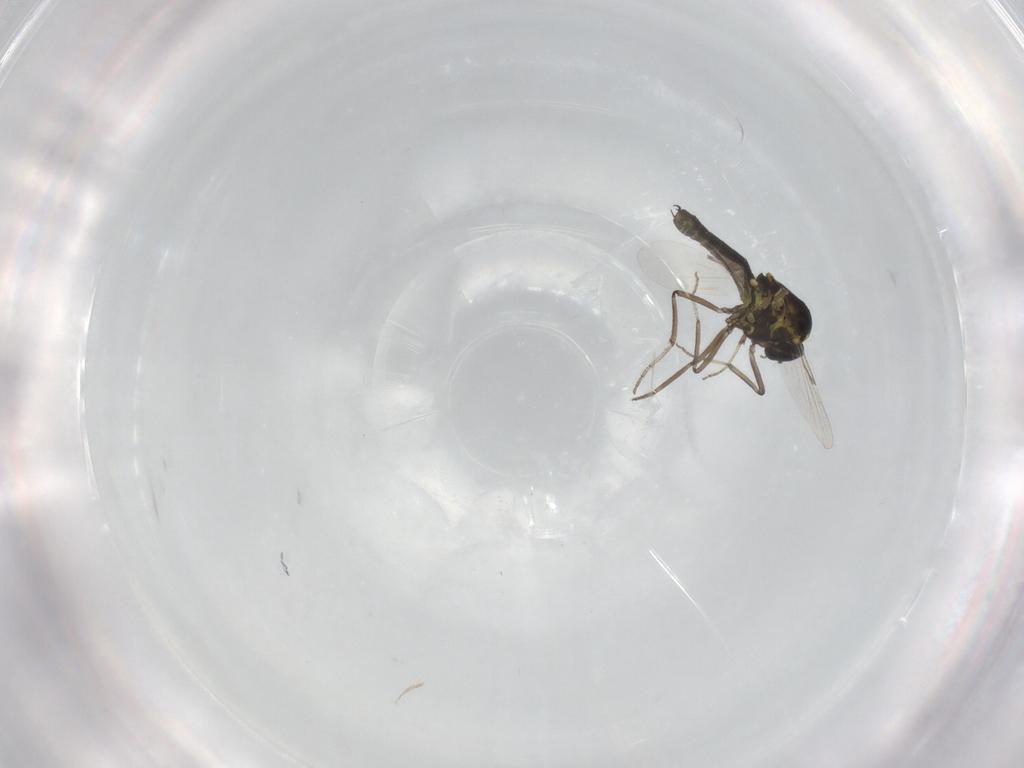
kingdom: Animalia
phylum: Arthropoda
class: Insecta
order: Diptera
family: Ceratopogonidae
